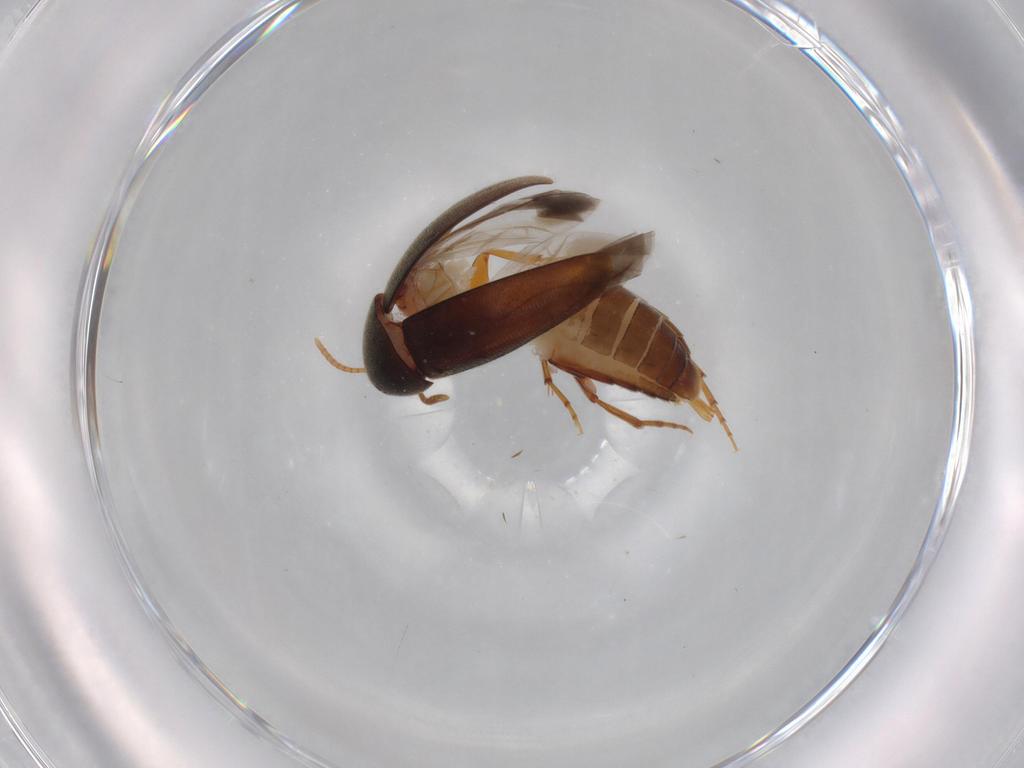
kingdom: Animalia
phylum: Arthropoda
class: Insecta
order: Coleoptera
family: Scraptiidae
